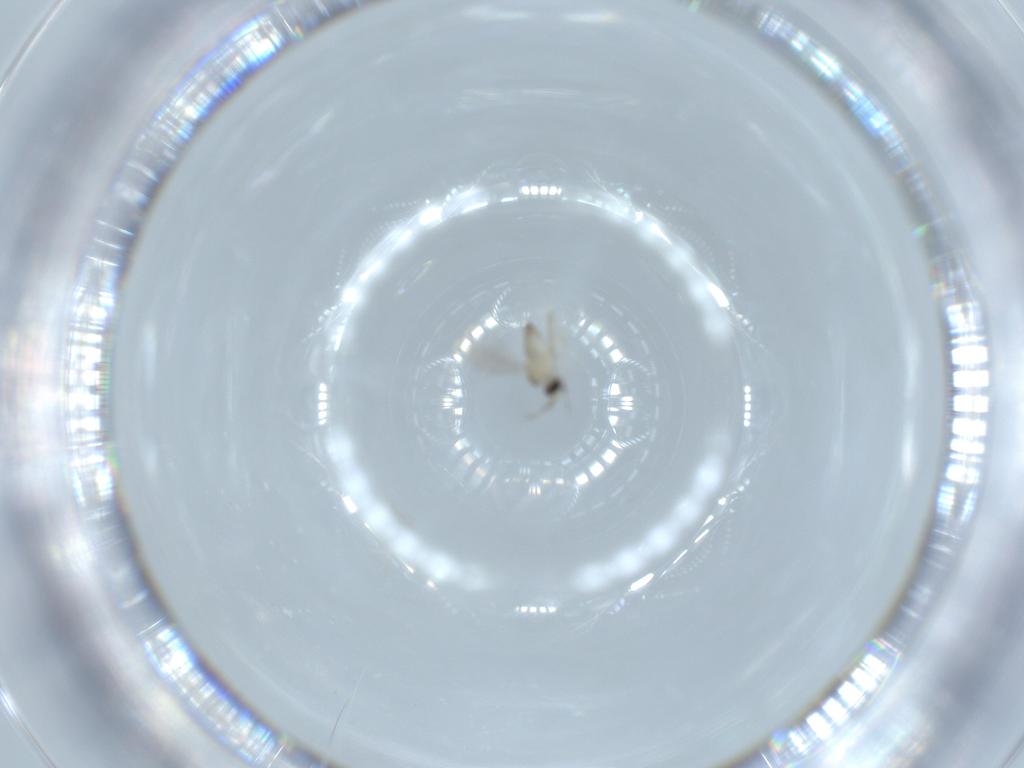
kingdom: Animalia
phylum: Arthropoda
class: Insecta
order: Diptera
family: Cecidomyiidae
